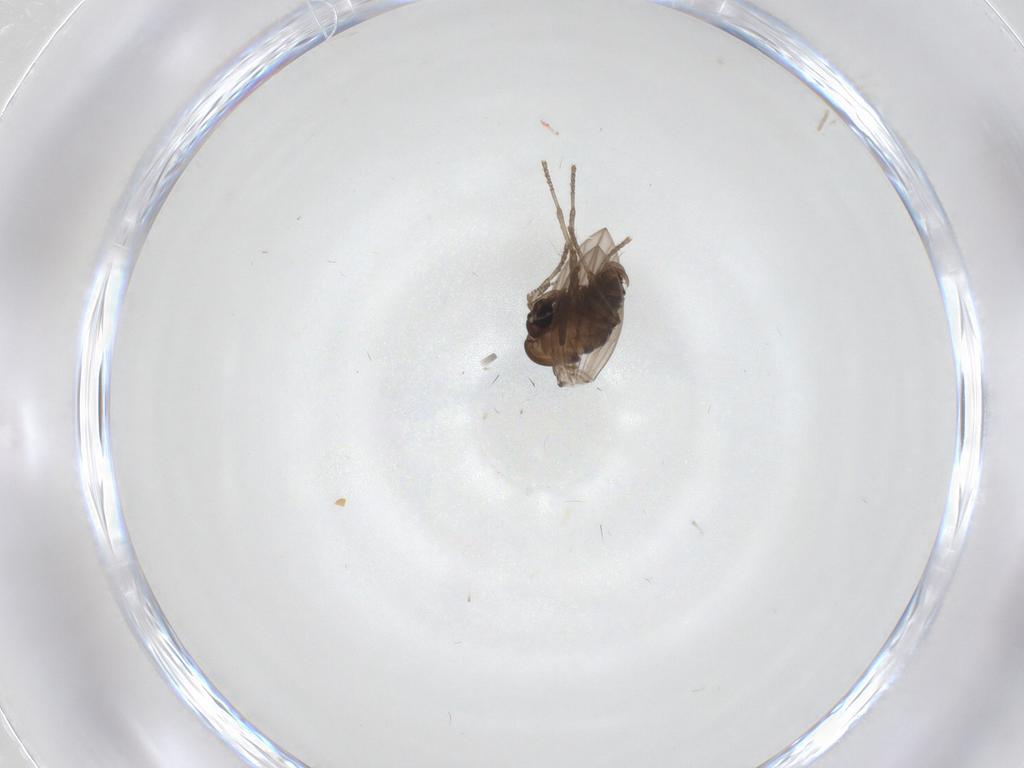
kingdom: Animalia
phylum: Arthropoda
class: Insecta
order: Diptera
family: Psychodidae
